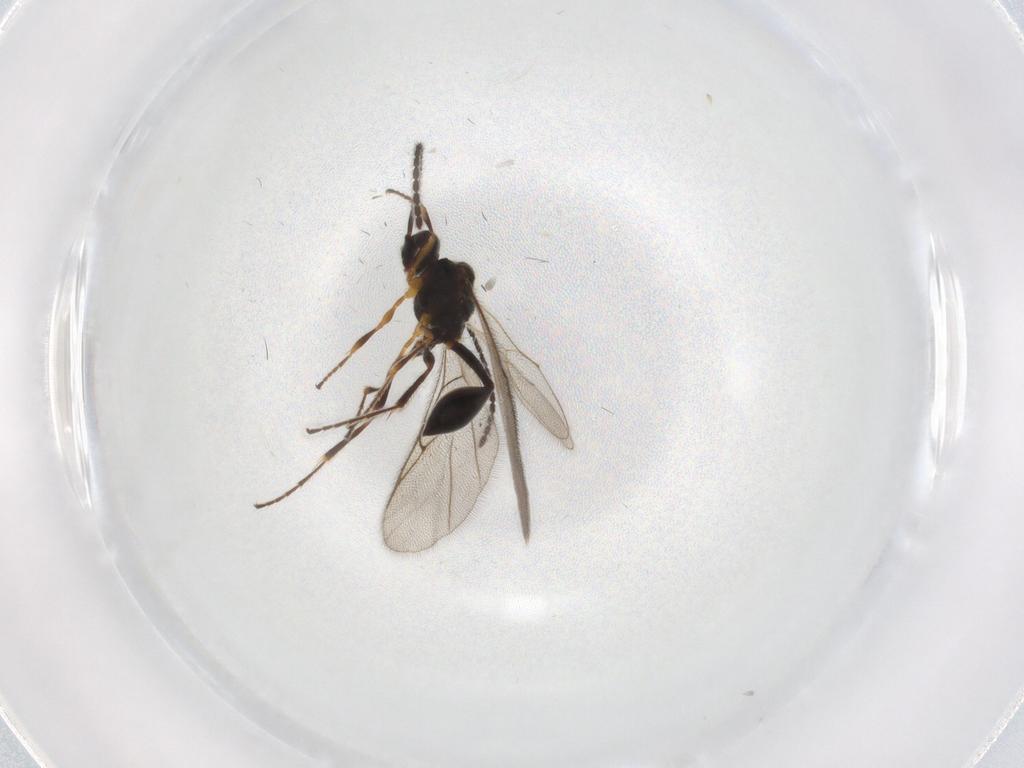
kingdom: Animalia
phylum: Arthropoda
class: Insecta
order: Hymenoptera
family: Diapriidae
